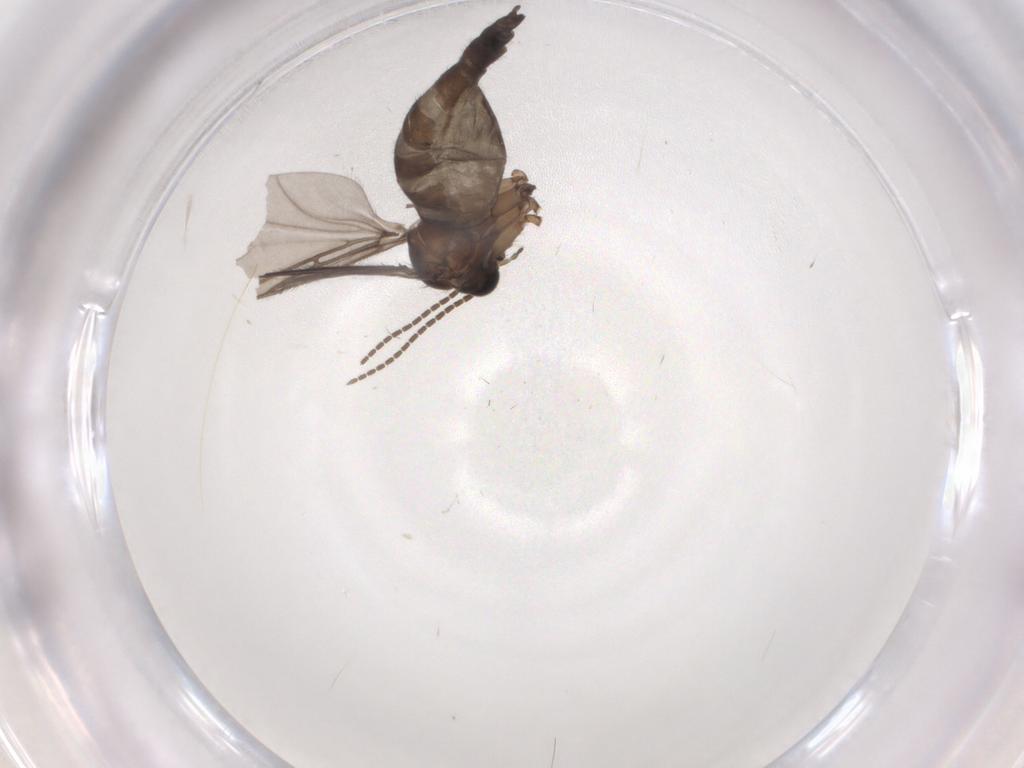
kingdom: Animalia
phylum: Arthropoda
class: Insecta
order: Diptera
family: Sciaridae
